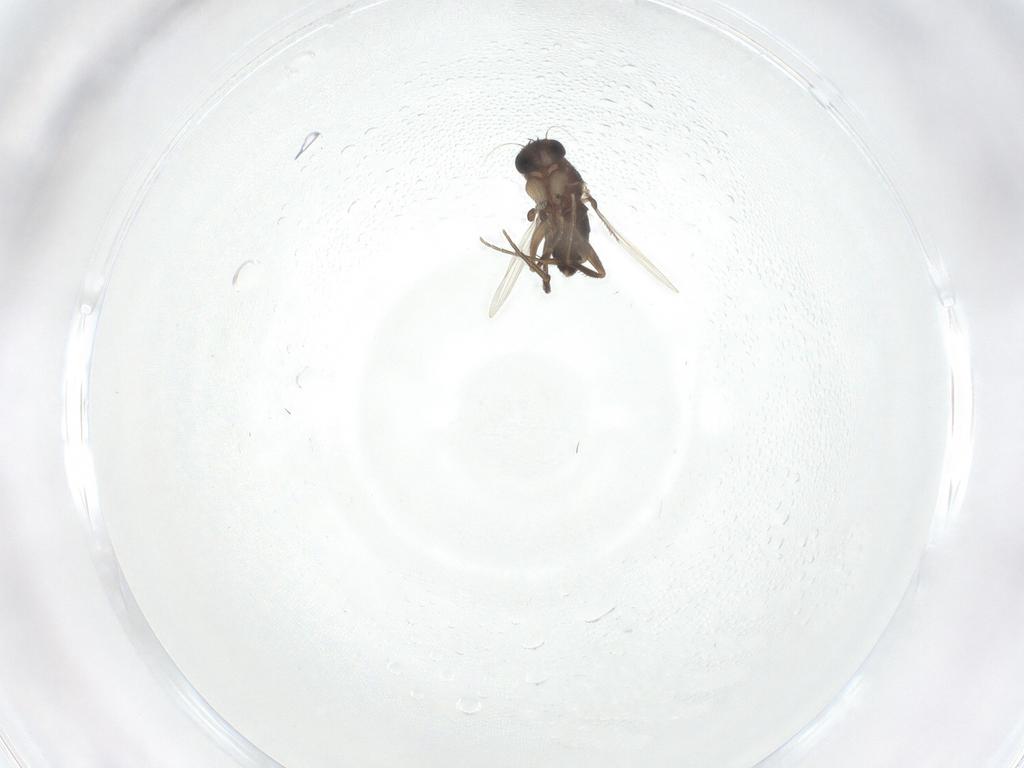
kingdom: Animalia
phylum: Arthropoda
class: Insecta
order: Diptera
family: Phoridae
